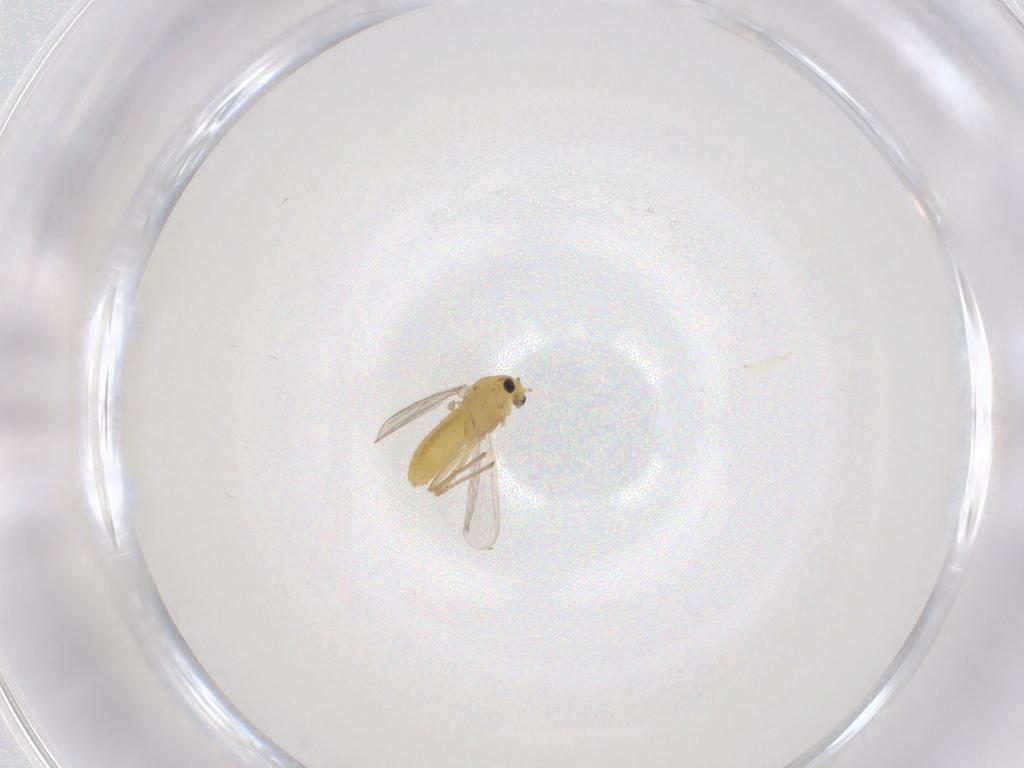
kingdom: Animalia
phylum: Arthropoda
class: Insecta
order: Diptera
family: Chironomidae
